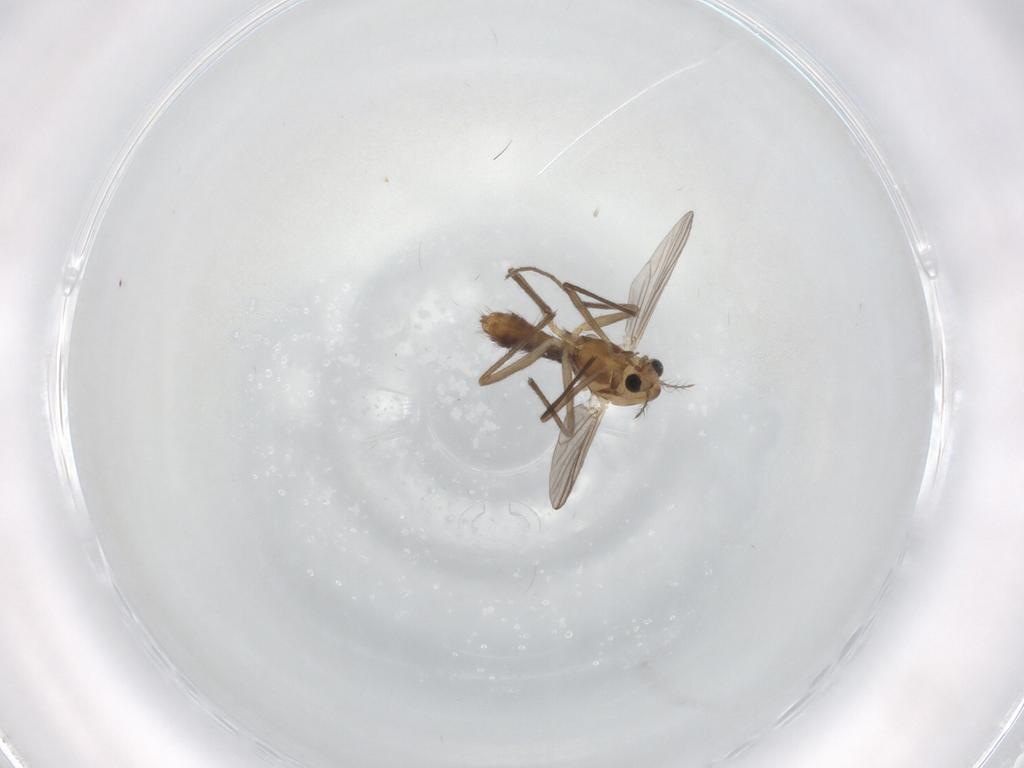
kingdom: Animalia
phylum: Arthropoda
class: Insecta
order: Diptera
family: Chironomidae
